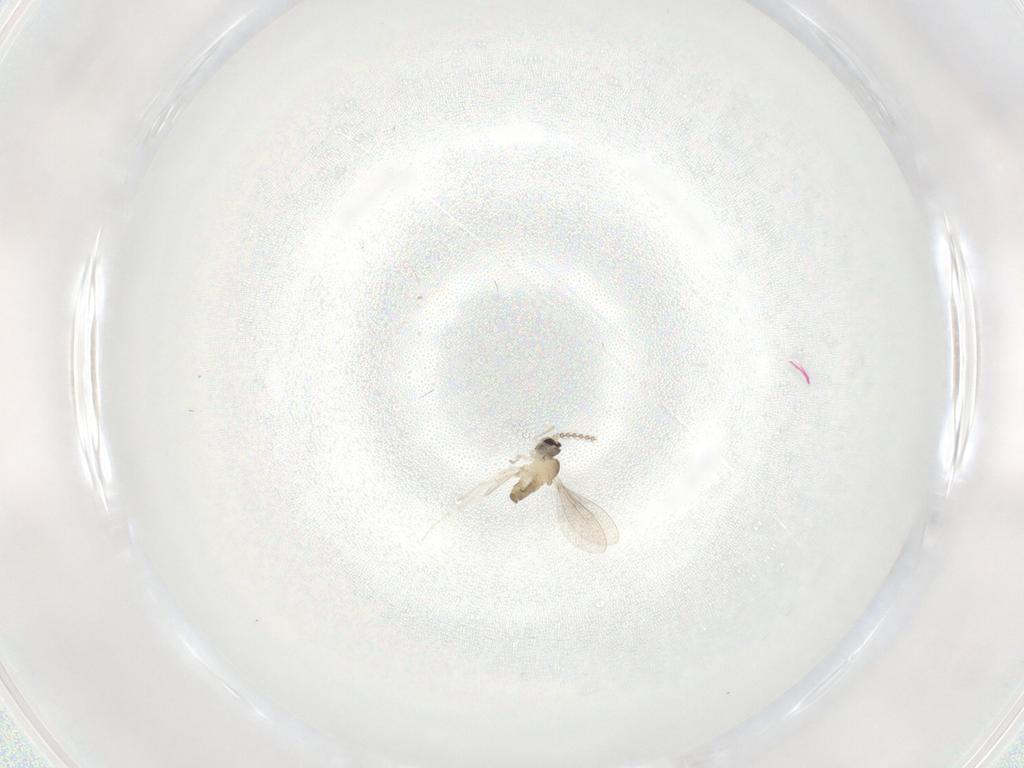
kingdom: Animalia
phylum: Arthropoda
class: Insecta
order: Diptera
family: Cecidomyiidae
